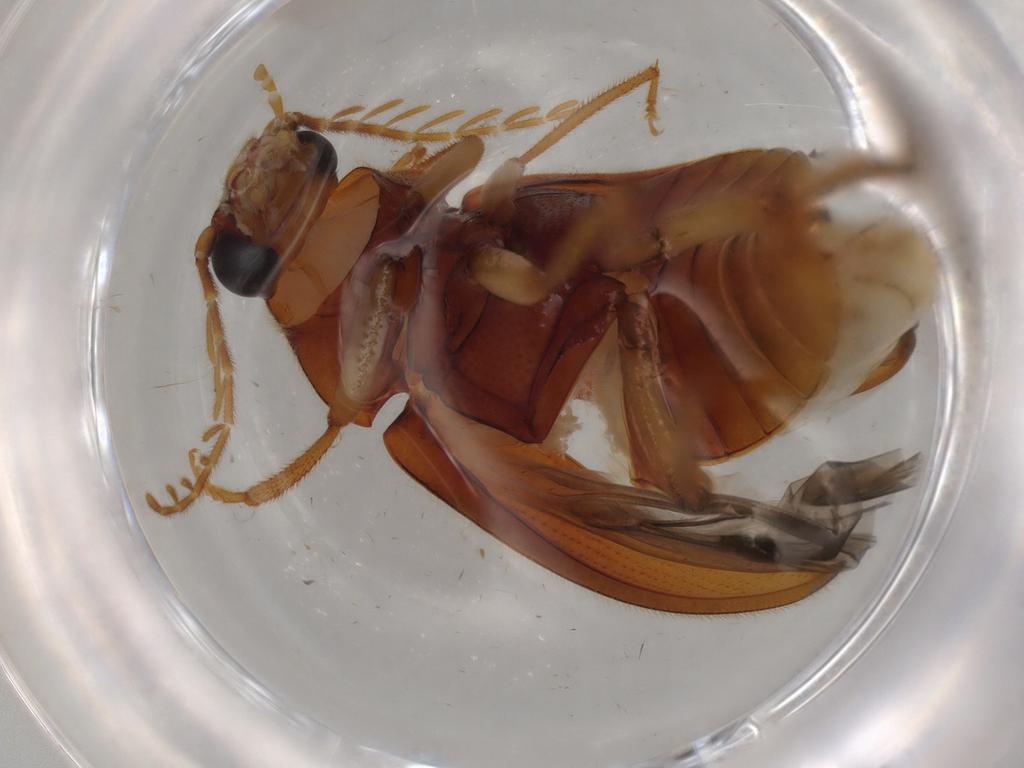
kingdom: Animalia
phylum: Arthropoda
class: Insecta
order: Coleoptera
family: Ptilodactylidae
